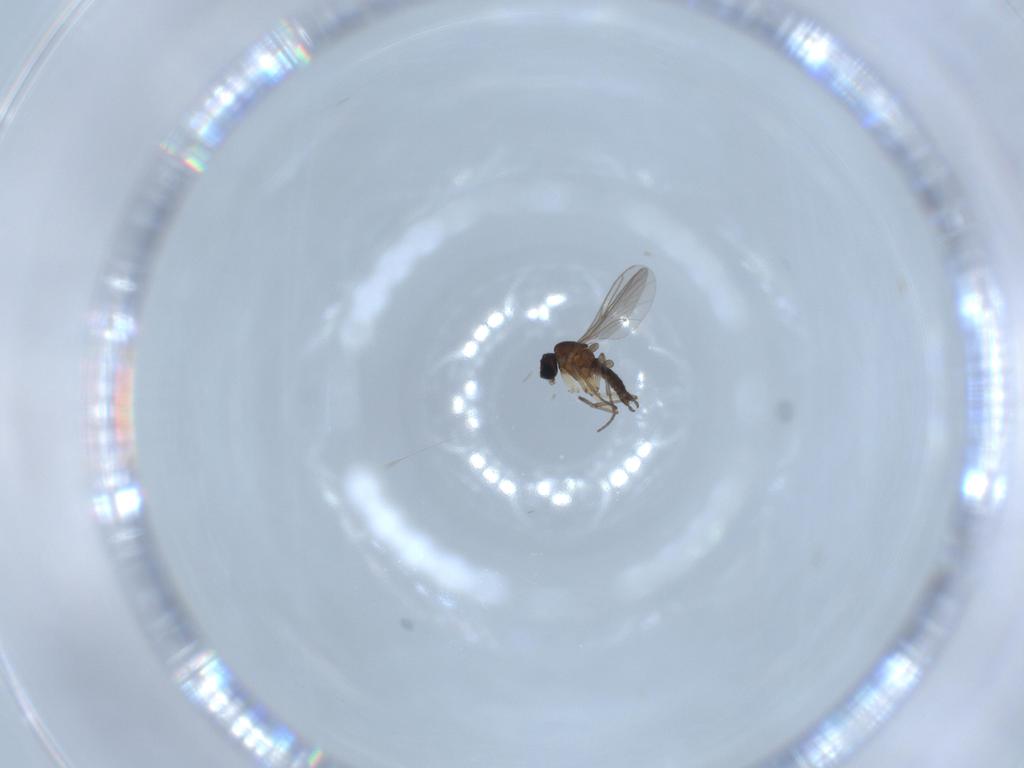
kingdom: Animalia
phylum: Arthropoda
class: Insecta
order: Diptera
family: Sciaridae
